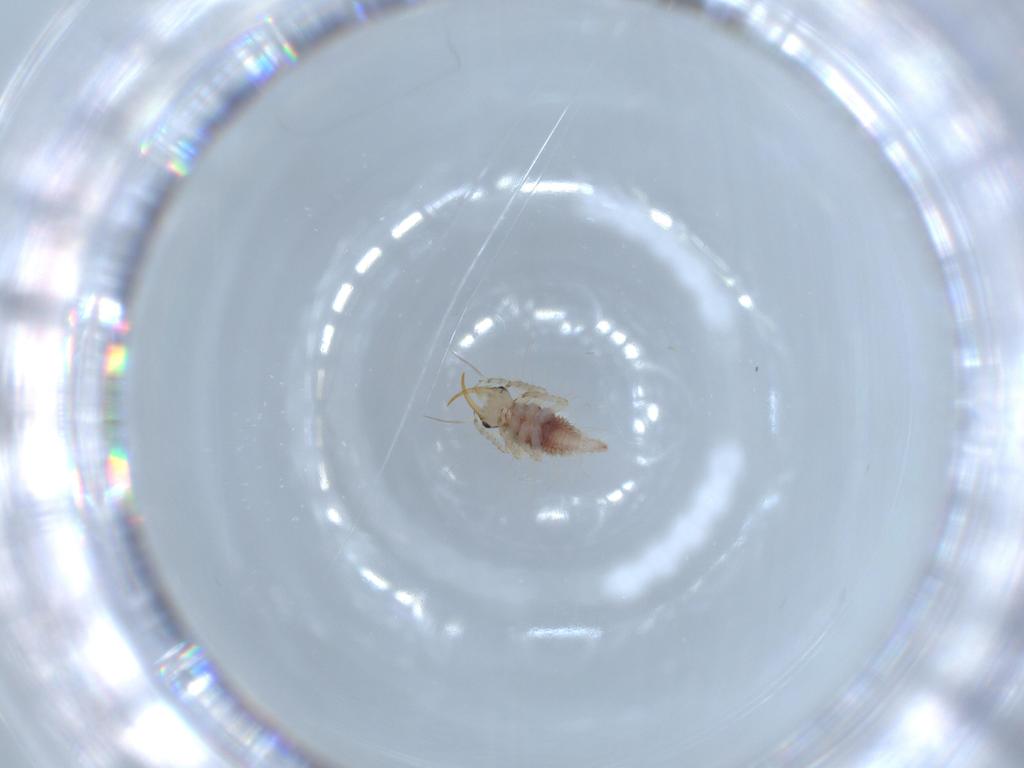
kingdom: Animalia
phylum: Arthropoda
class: Insecta
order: Neuroptera
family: Chrysopidae
